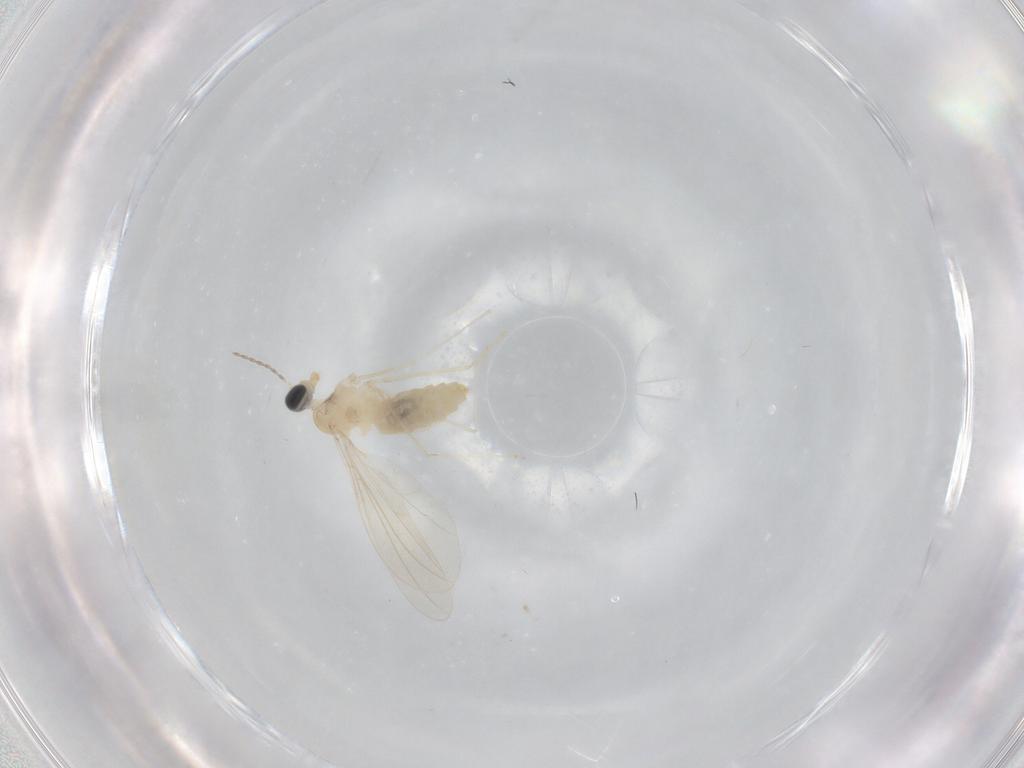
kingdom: Animalia
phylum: Arthropoda
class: Insecta
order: Diptera
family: Cecidomyiidae
